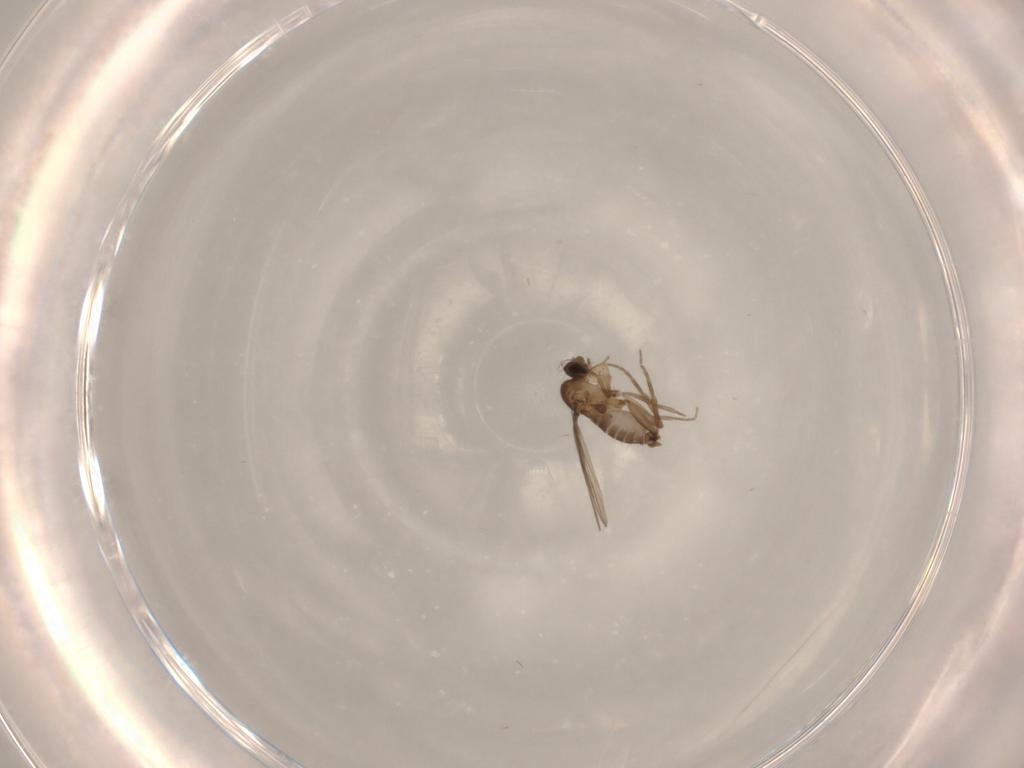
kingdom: Animalia
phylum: Arthropoda
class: Insecta
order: Diptera
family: Phoridae
